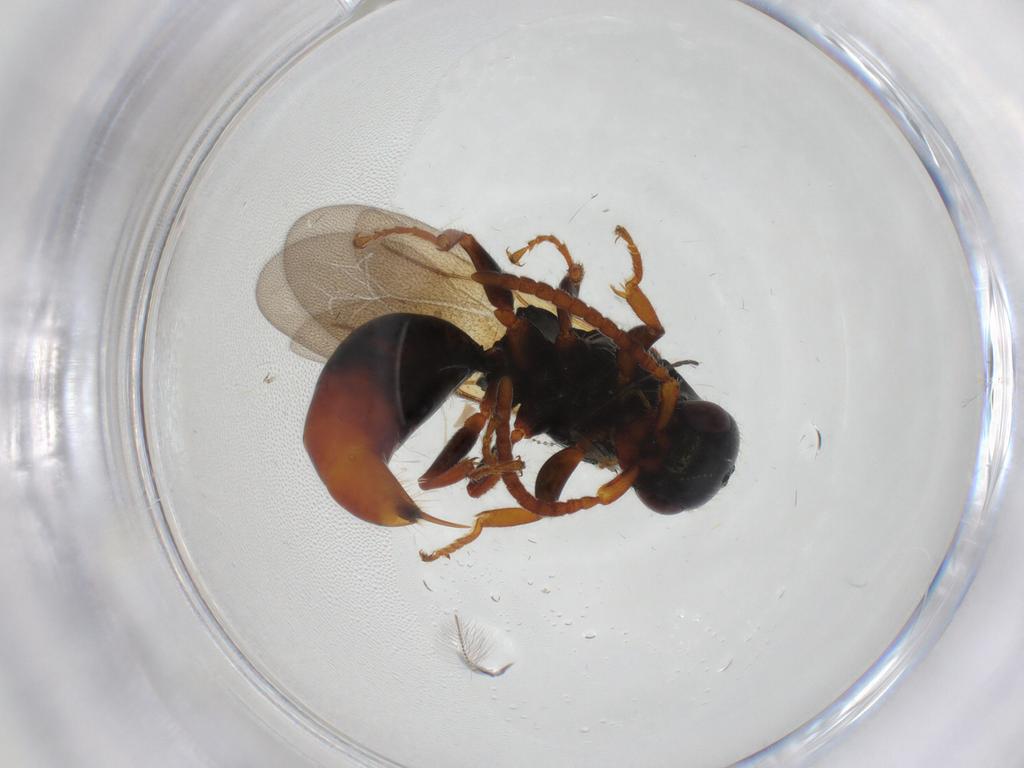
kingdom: Animalia
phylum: Arthropoda
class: Insecta
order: Hymenoptera
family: Bethylidae
